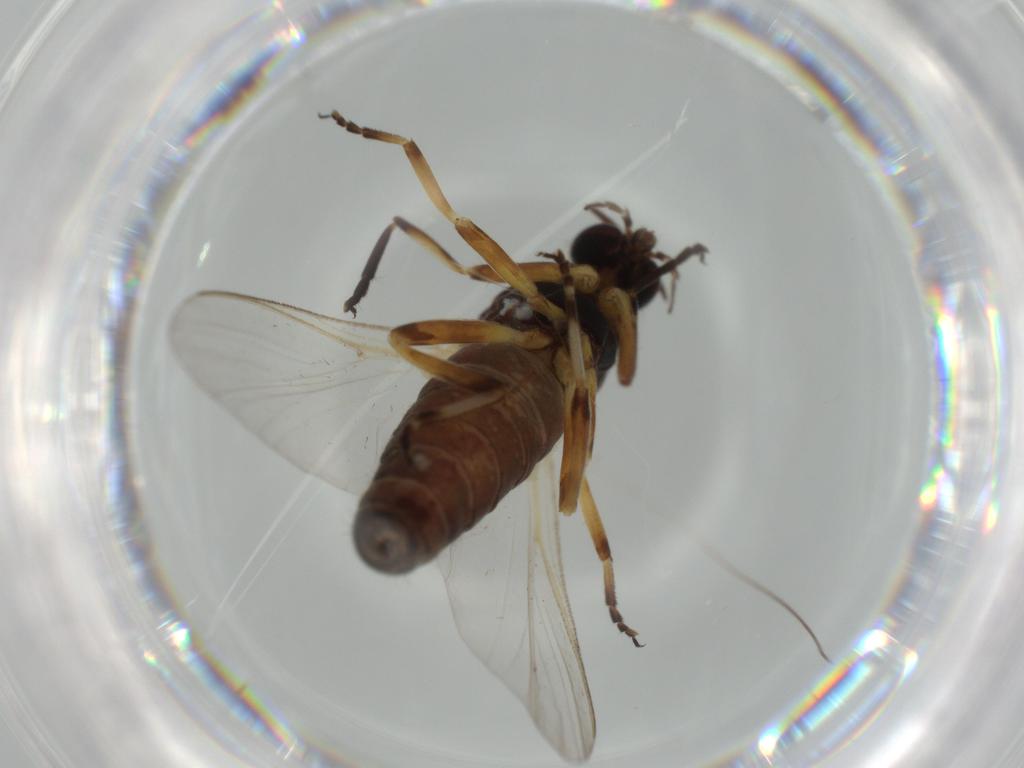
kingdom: Animalia
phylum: Arthropoda
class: Insecta
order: Diptera
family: Phoridae
